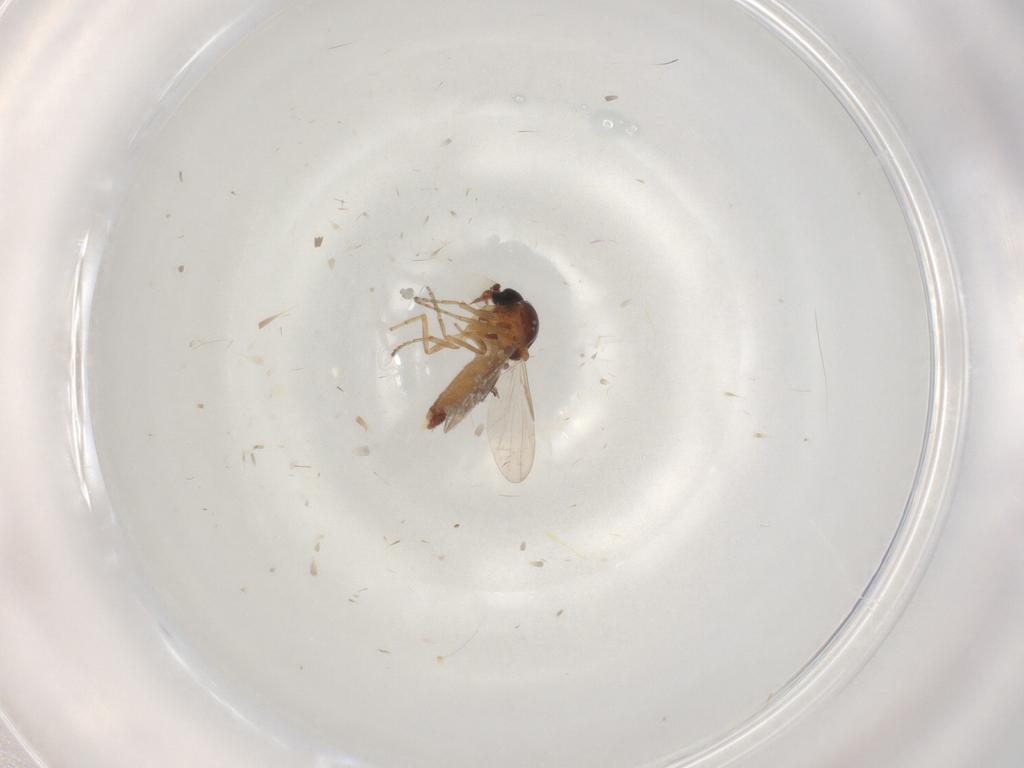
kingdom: Animalia
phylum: Arthropoda
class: Insecta
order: Diptera
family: Ceratopogonidae
